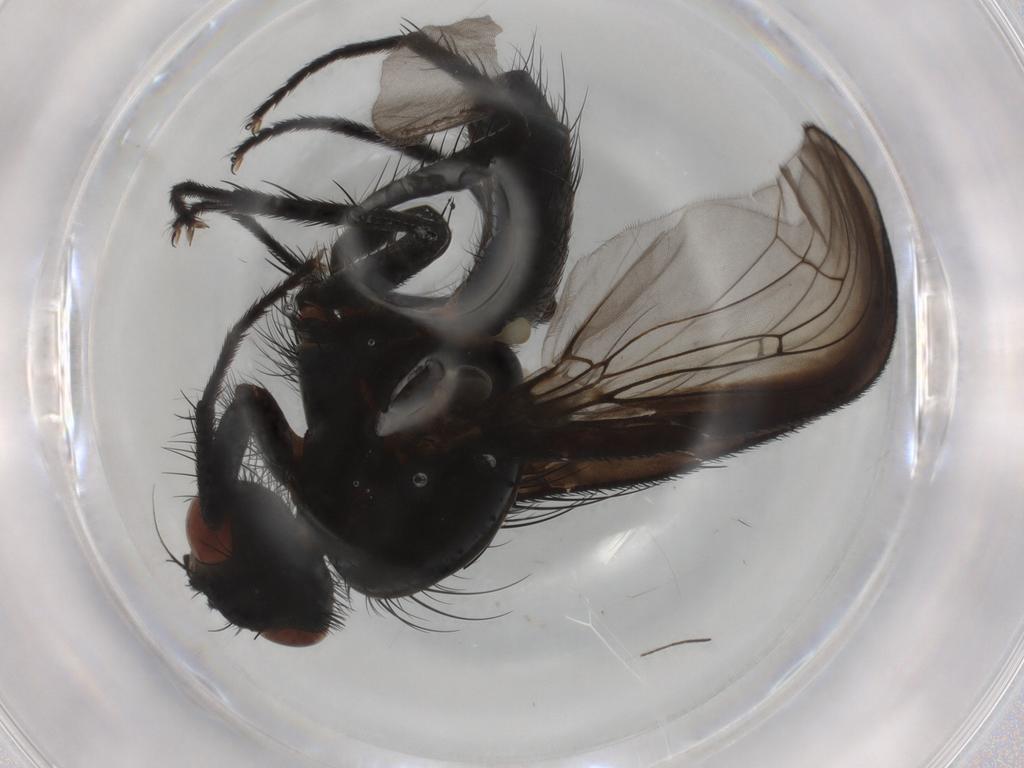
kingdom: Animalia
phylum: Arthropoda
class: Insecta
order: Diptera
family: Anthomyiidae
